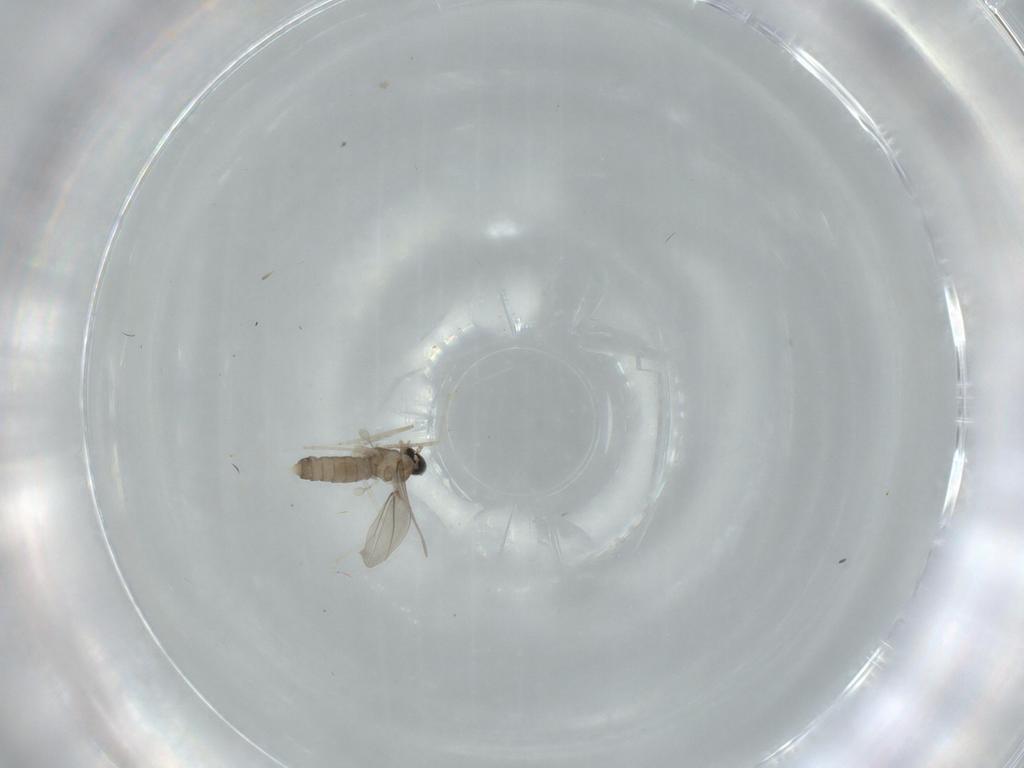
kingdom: Animalia
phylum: Arthropoda
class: Insecta
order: Diptera
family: Cecidomyiidae
